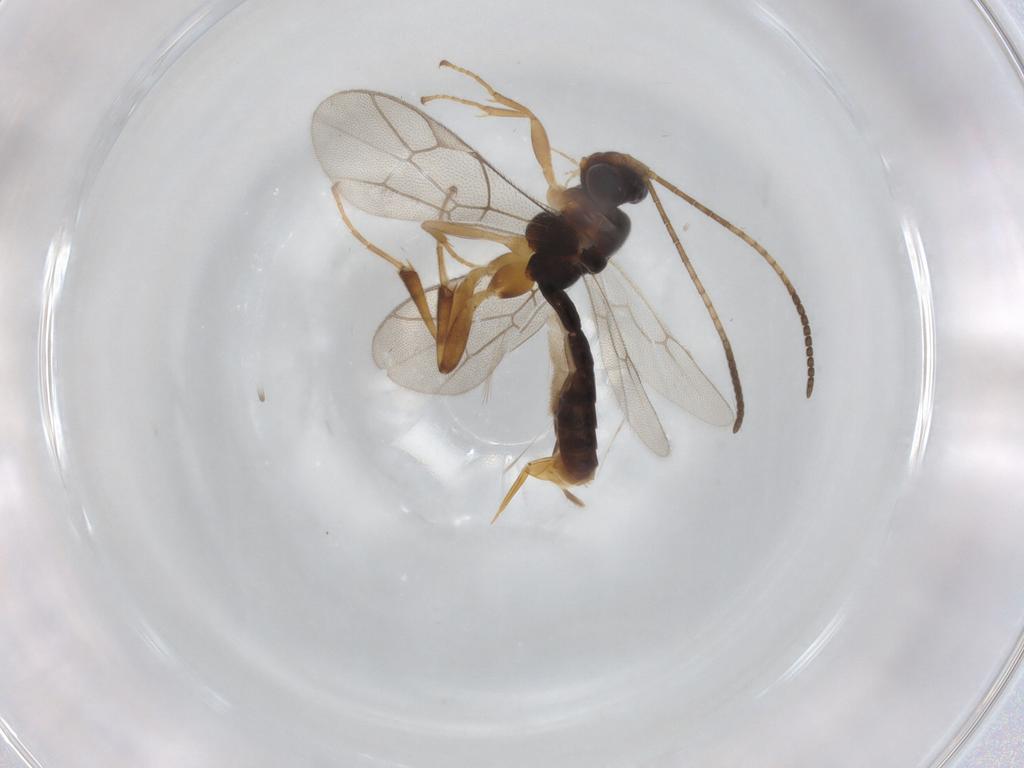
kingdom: Animalia
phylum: Arthropoda
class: Insecta
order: Hymenoptera
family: Ichneumonidae
